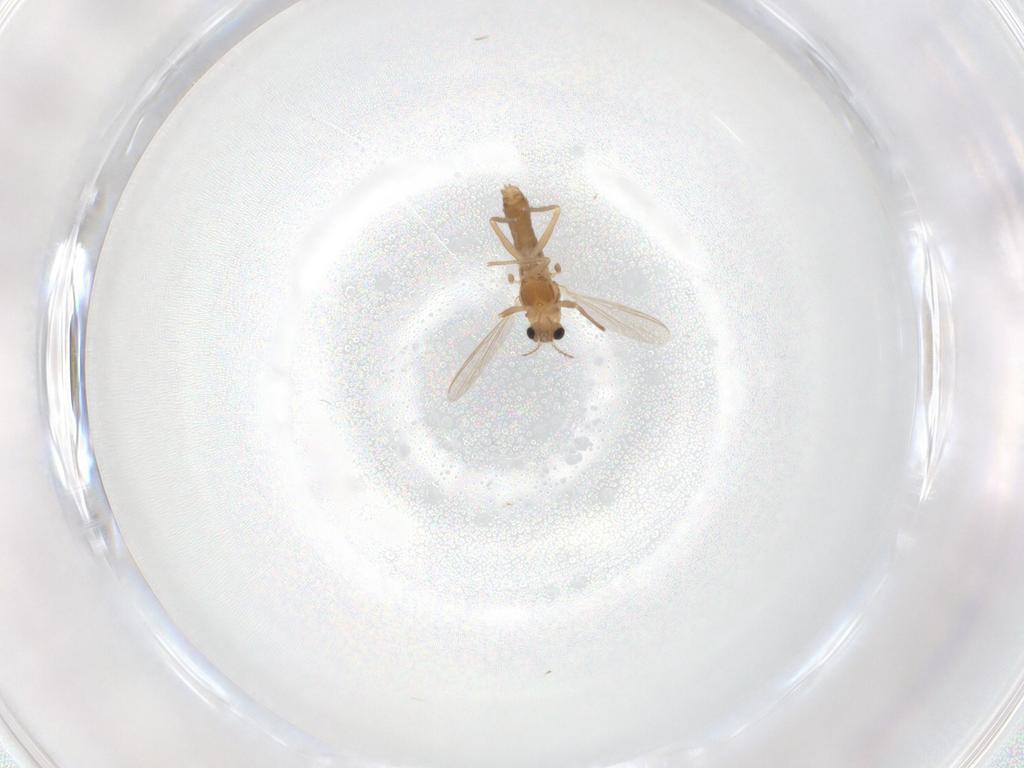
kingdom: Animalia
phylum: Arthropoda
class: Insecta
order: Diptera
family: Chironomidae
